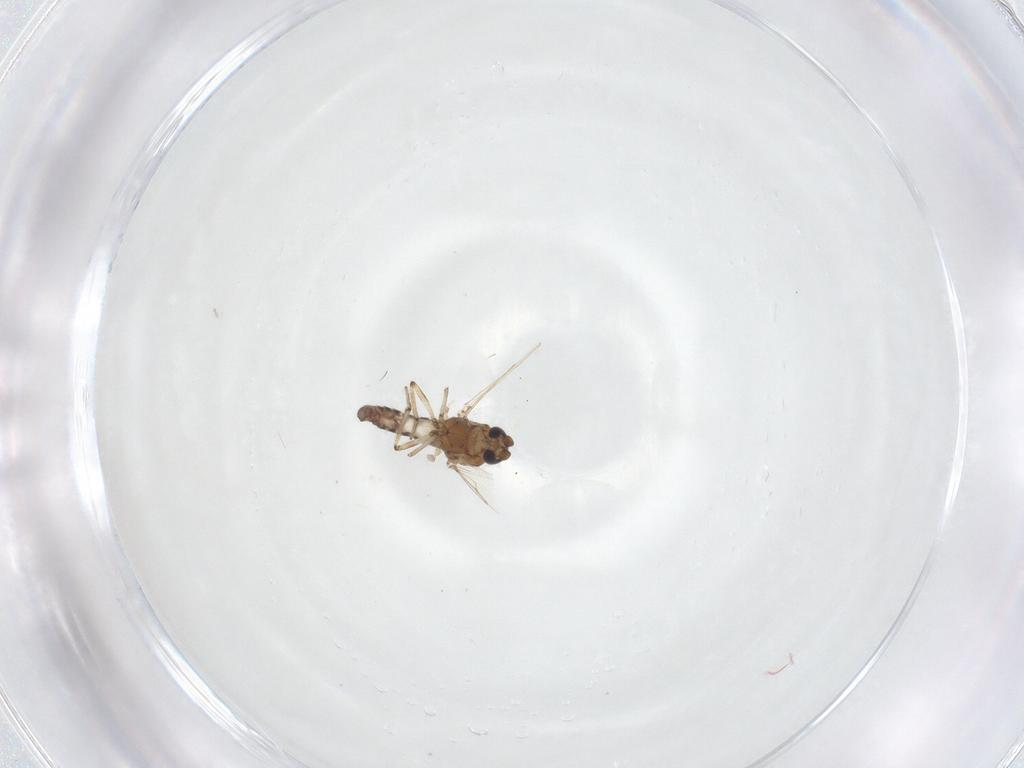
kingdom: Animalia
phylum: Arthropoda
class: Insecta
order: Diptera
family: Ceratopogonidae
